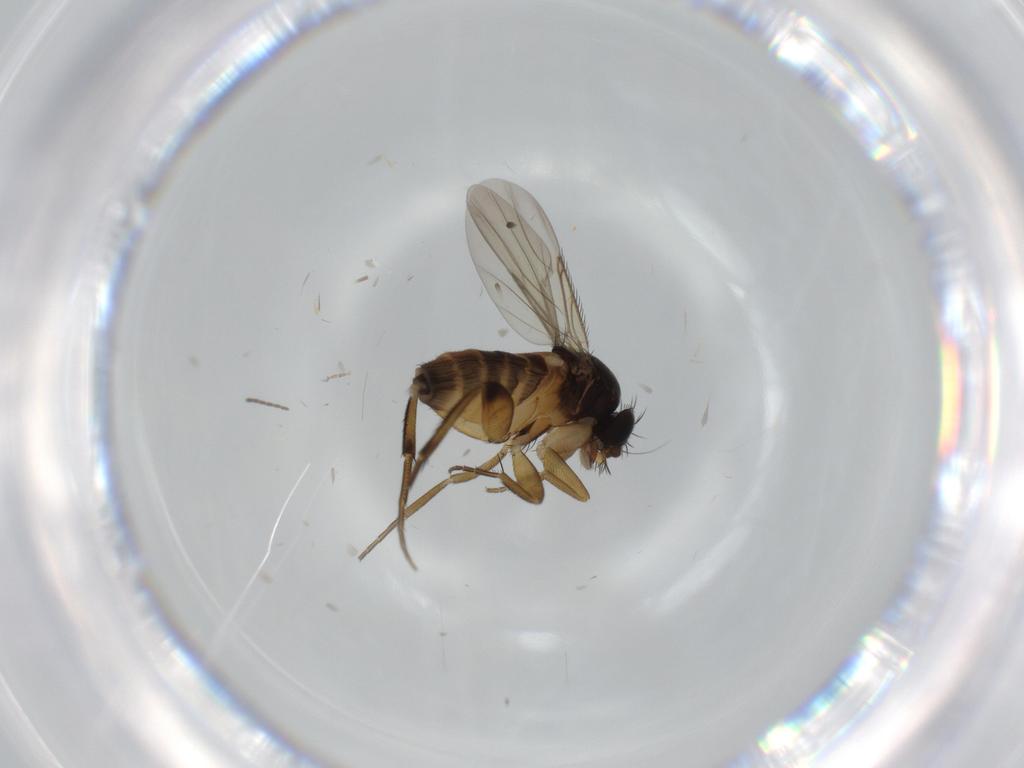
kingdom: Animalia
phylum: Arthropoda
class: Insecta
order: Diptera
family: Phoridae
